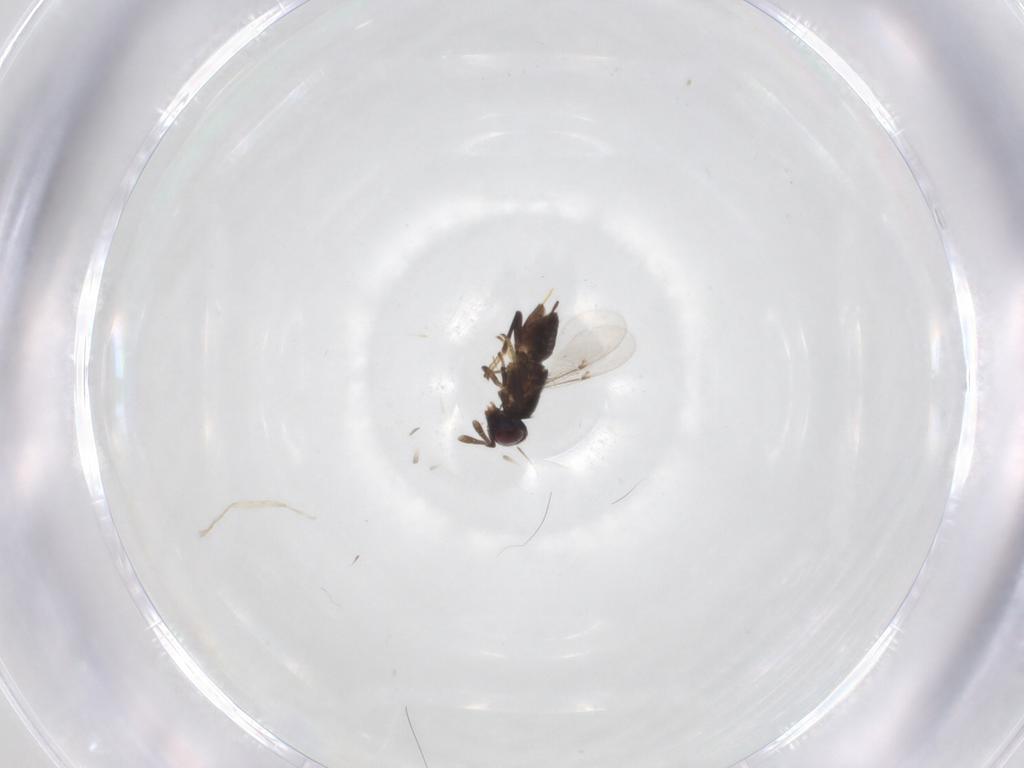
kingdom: Animalia
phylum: Arthropoda
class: Insecta
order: Hymenoptera
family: Encyrtidae
